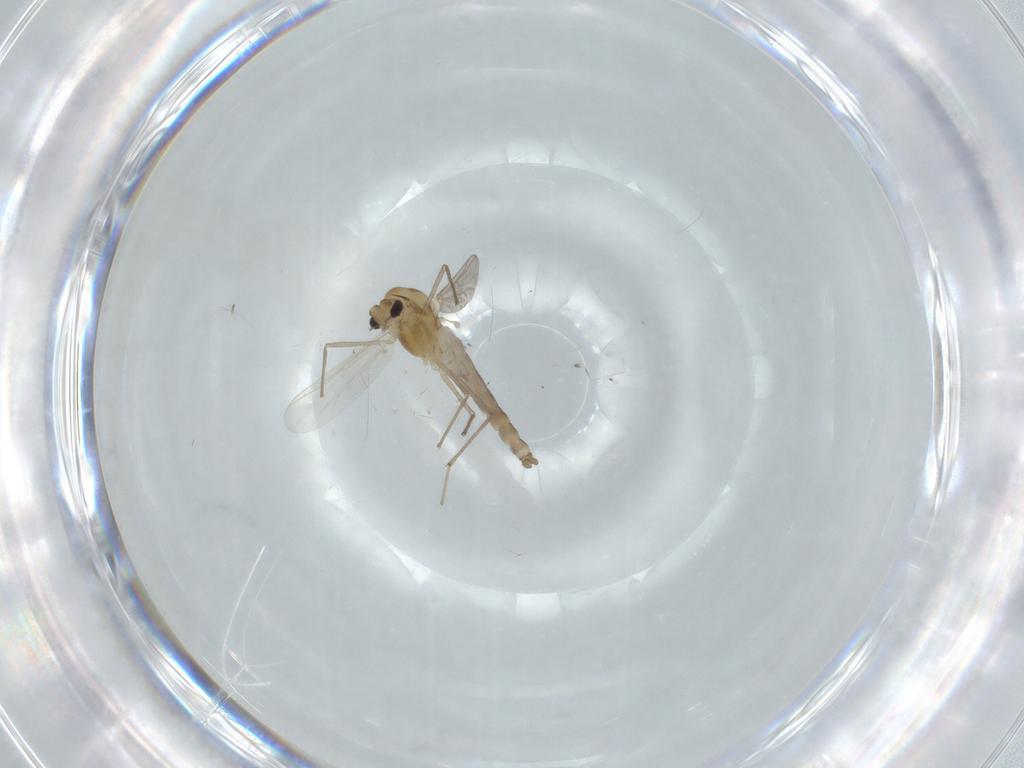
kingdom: Animalia
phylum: Arthropoda
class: Insecta
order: Diptera
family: Chironomidae
